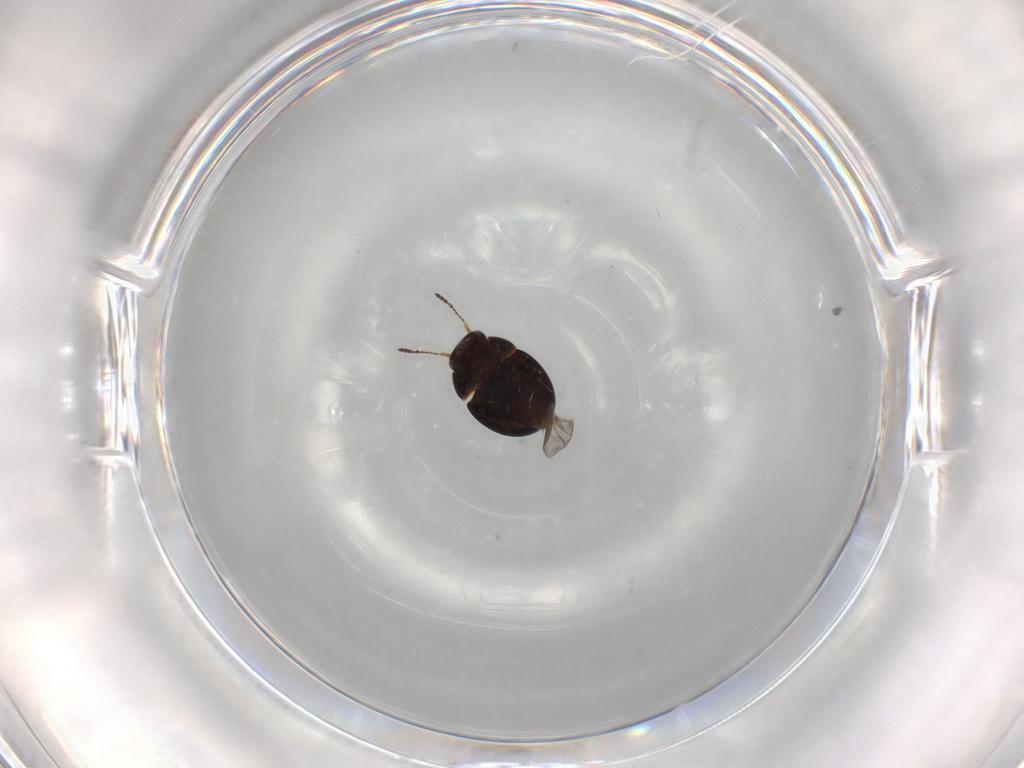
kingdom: Animalia
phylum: Arthropoda
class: Insecta
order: Coleoptera
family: Leiodidae
